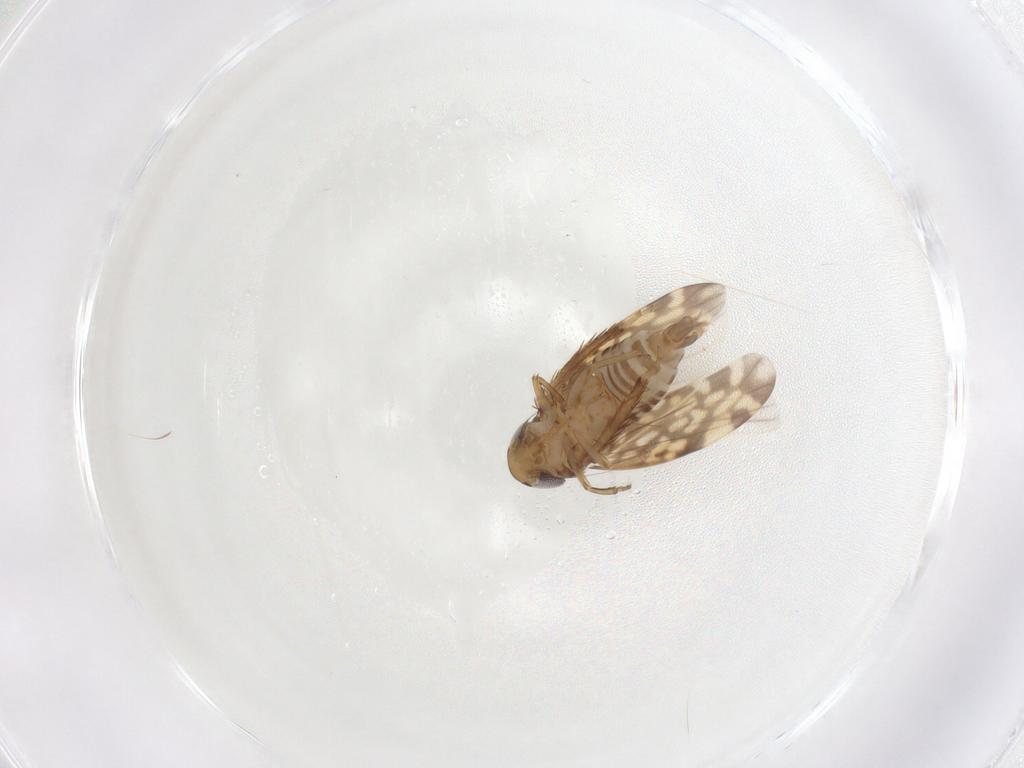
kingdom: Animalia
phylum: Arthropoda
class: Insecta
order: Hemiptera
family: Cicadellidae
